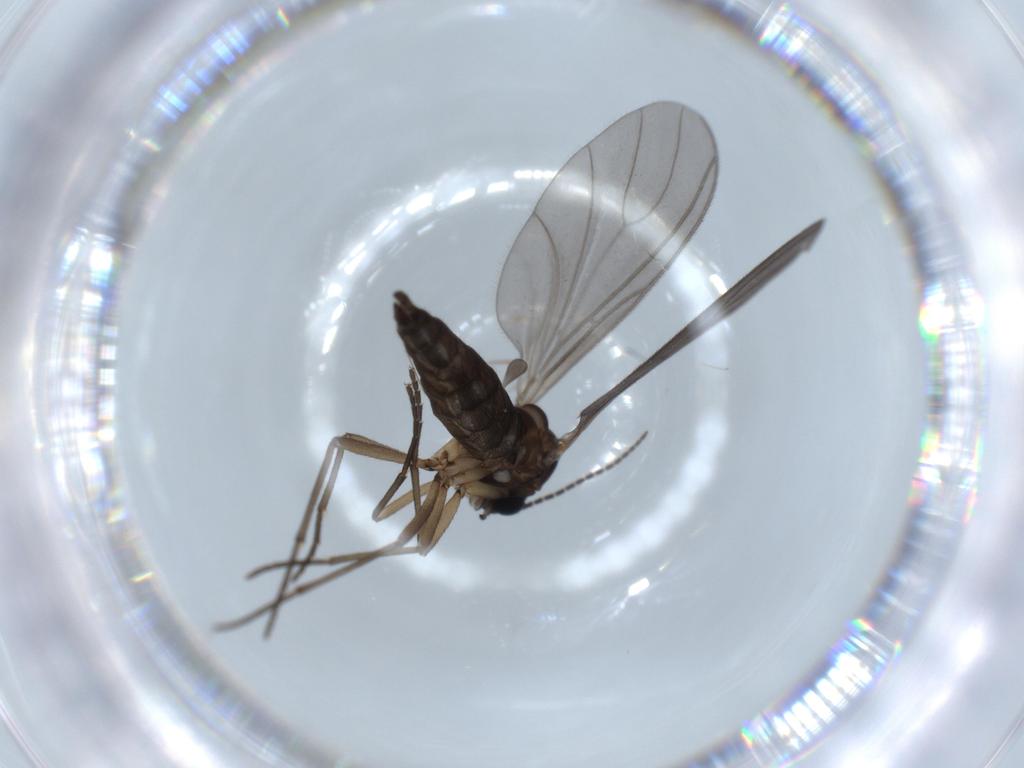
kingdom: Animalia
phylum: Arthropoda
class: Insecta
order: Diptera
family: Sciaridae
